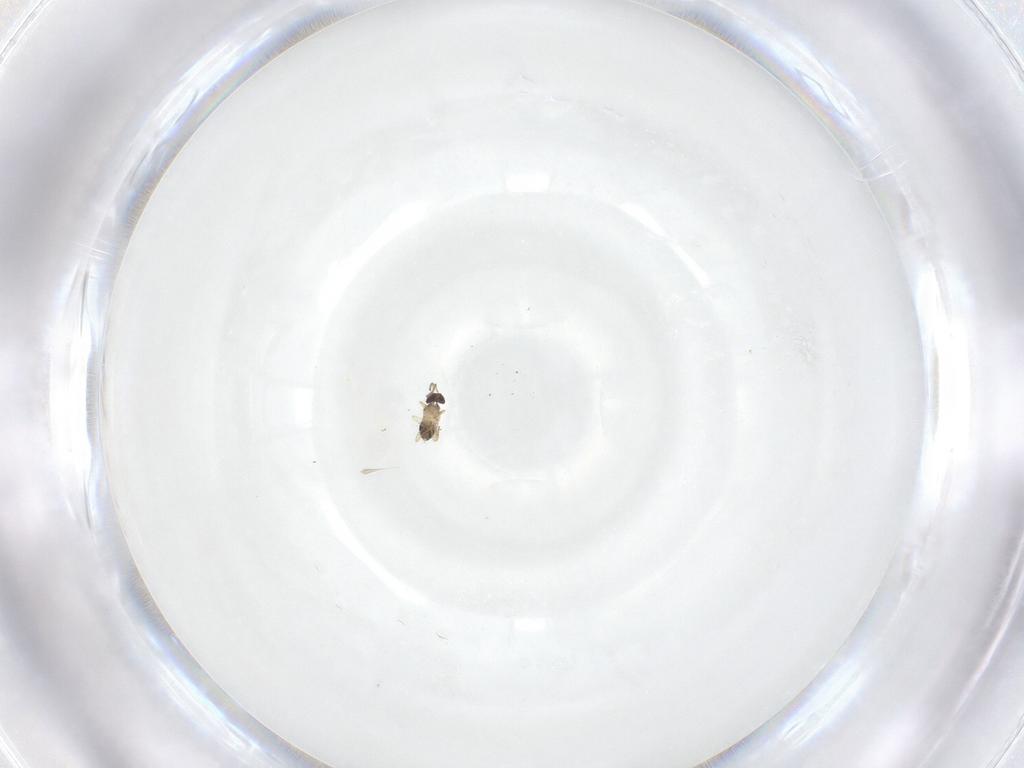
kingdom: Animalia
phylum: Arthropoda
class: Insecta
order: Hymenoptera
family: Mymaridae
